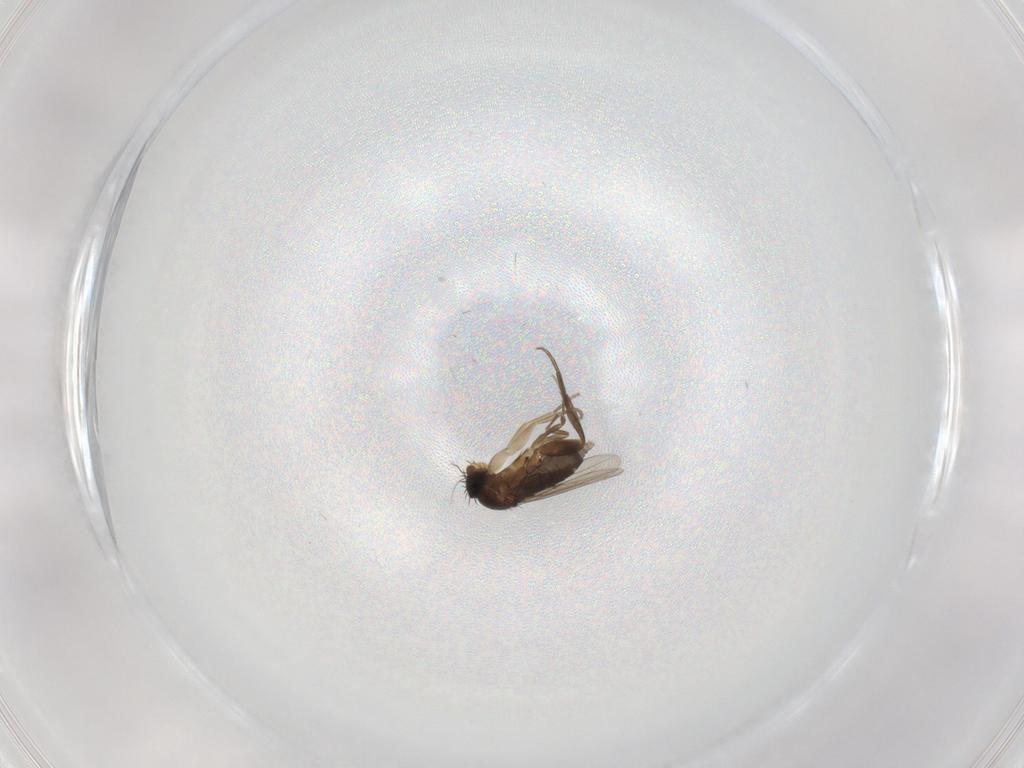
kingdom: Animalia
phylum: Arthropoda
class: Insecta
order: Diptera
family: Phoridae
